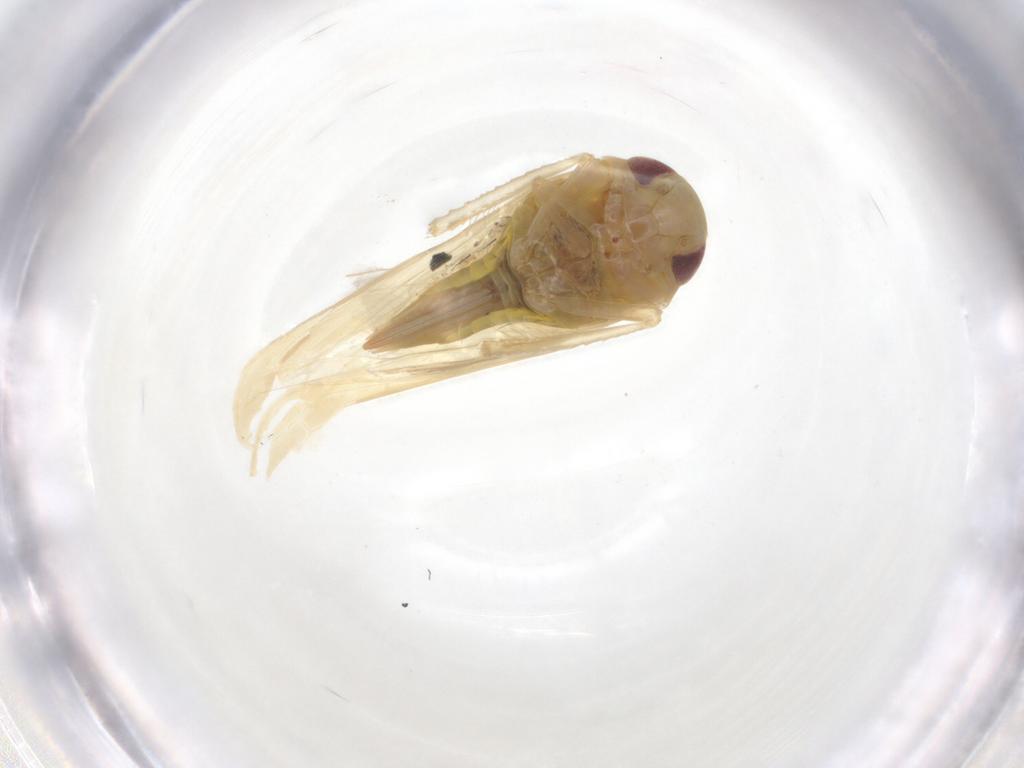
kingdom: Animalia
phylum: Arthropoda
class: Insecta
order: Hemiptera
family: Cicadellidae
